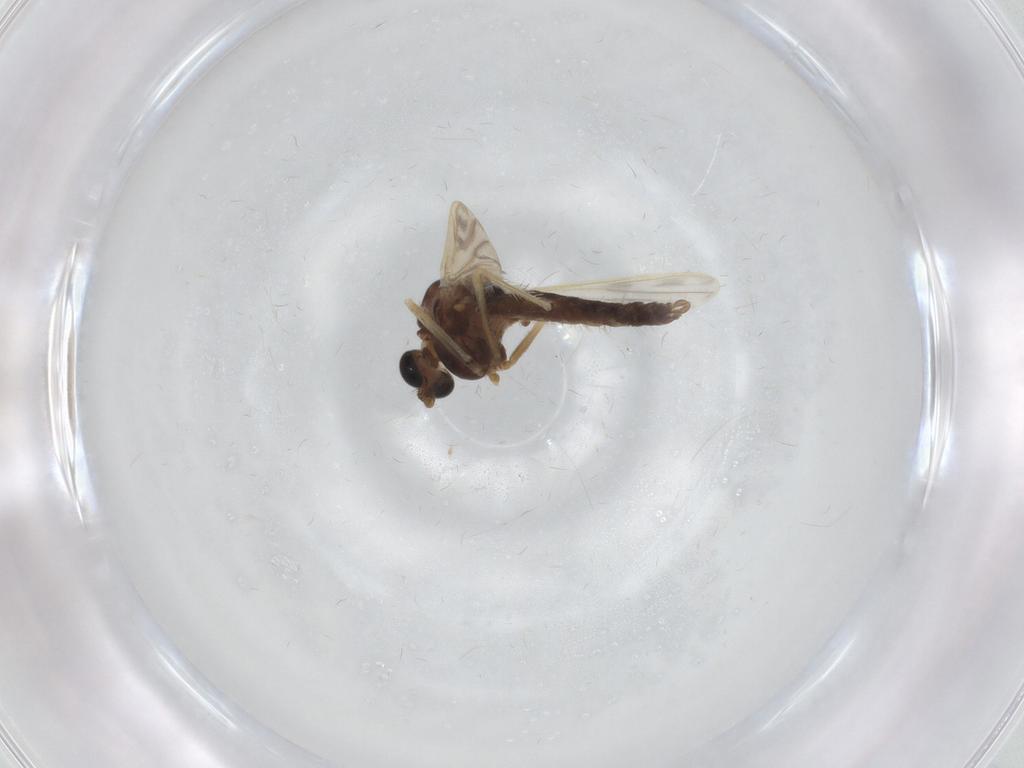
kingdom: Animalia
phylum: Arthropoda
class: Insecta
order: Diptera
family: Chironomidae
